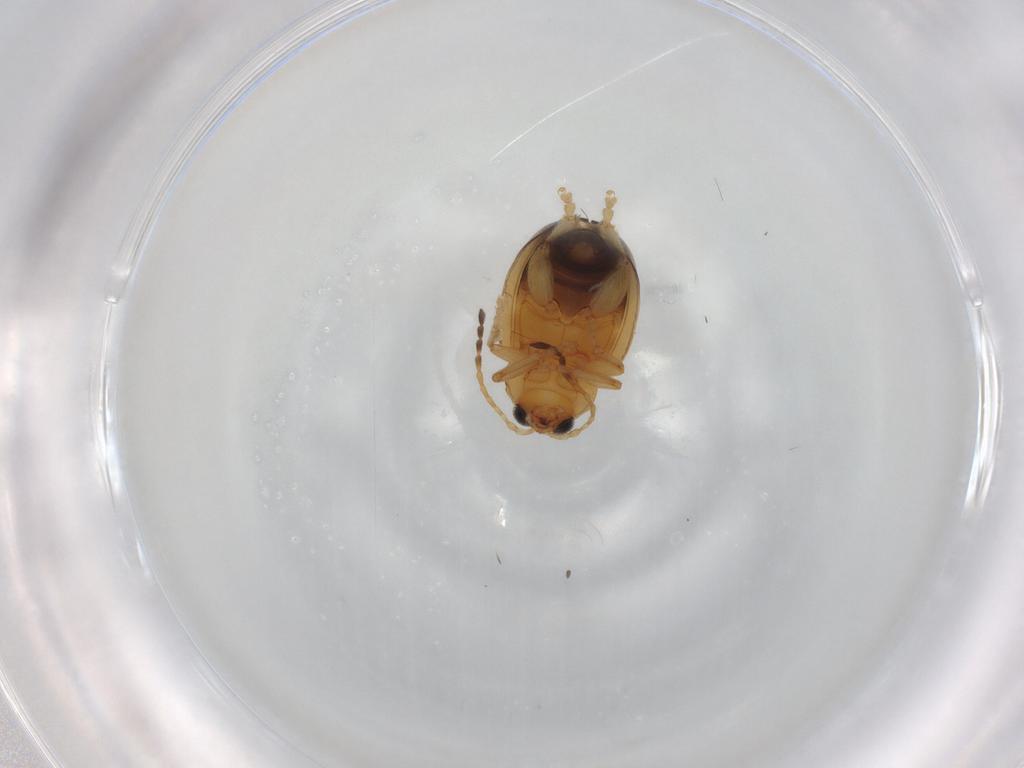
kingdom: Animalia
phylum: Arthropoda
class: Insecta
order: Coleoptera
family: Chrysomelidae
